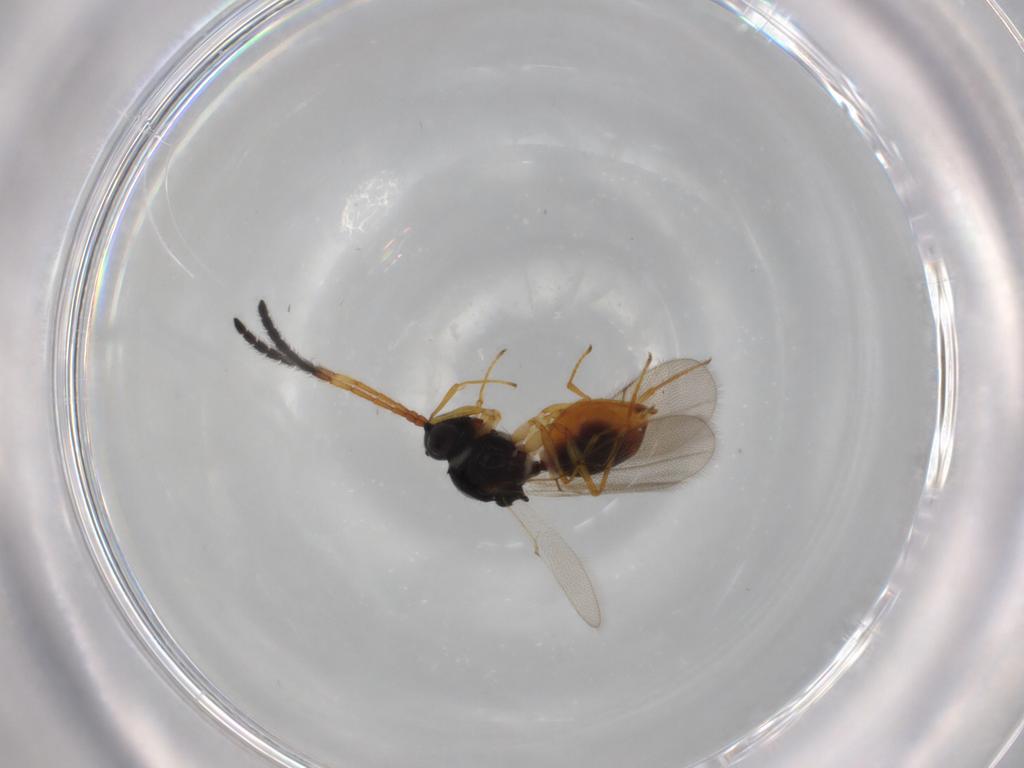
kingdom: Animalia
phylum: Arthropoda
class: Insecta
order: Hymenoptera
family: Figitidae
